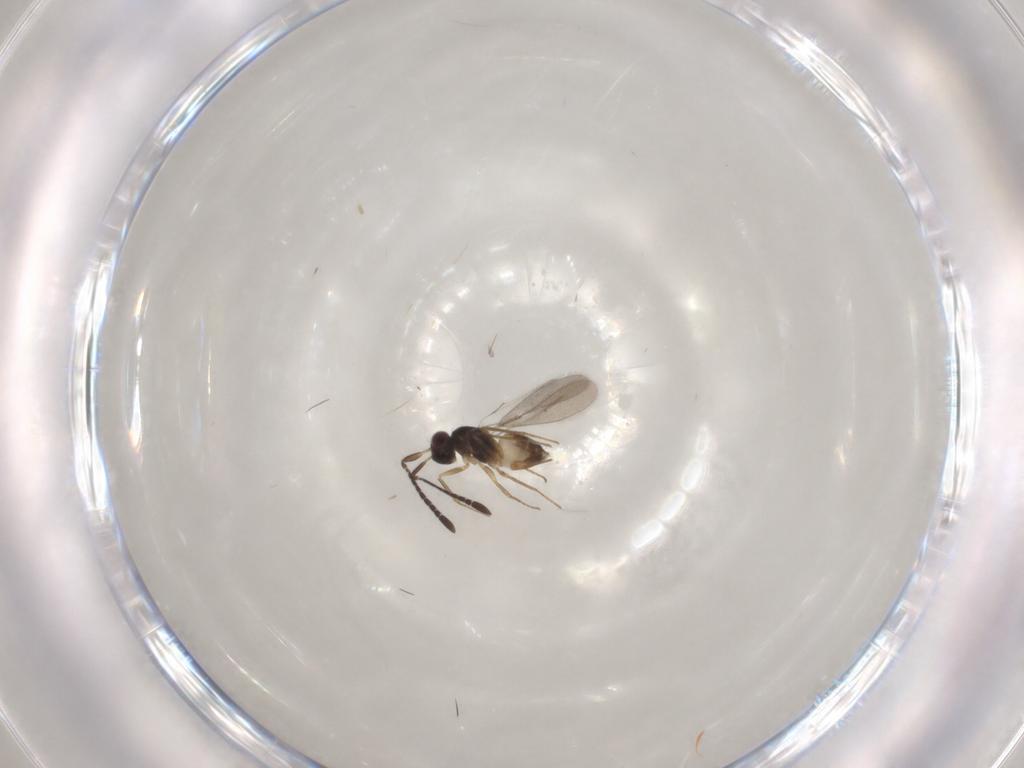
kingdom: Animalia
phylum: Arthropoda
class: Insecta
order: Hymenoptera
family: Mymaridae
